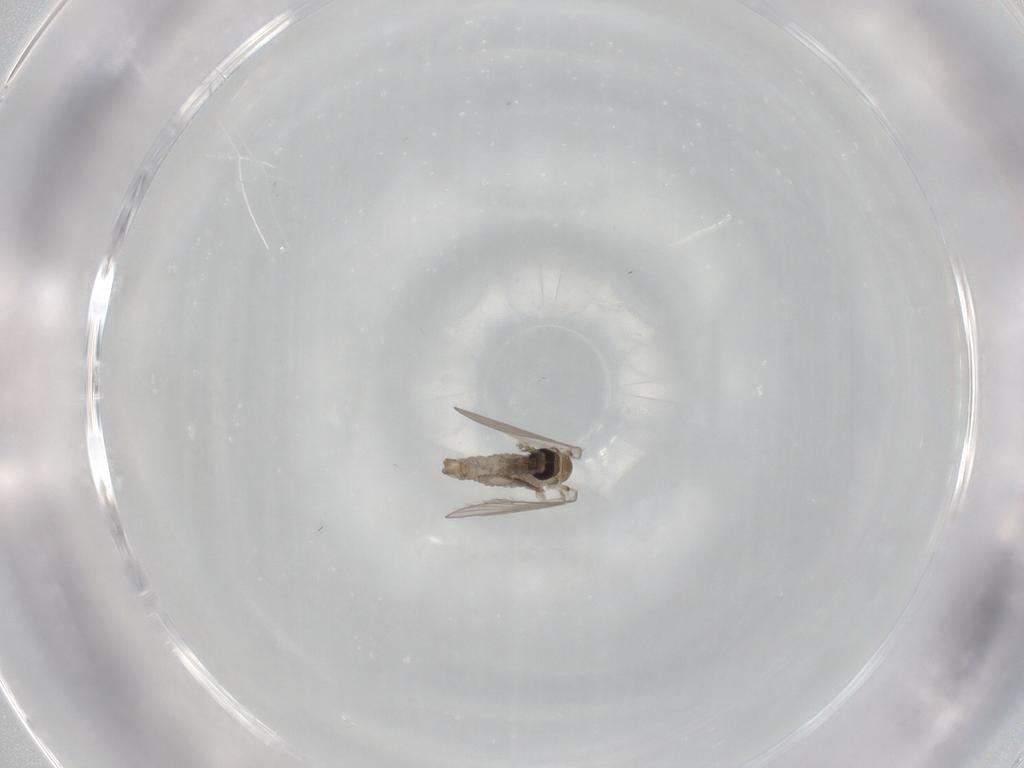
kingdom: Animalia
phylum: Arthropoda
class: Insecta
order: Diptera
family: Psychodidae
